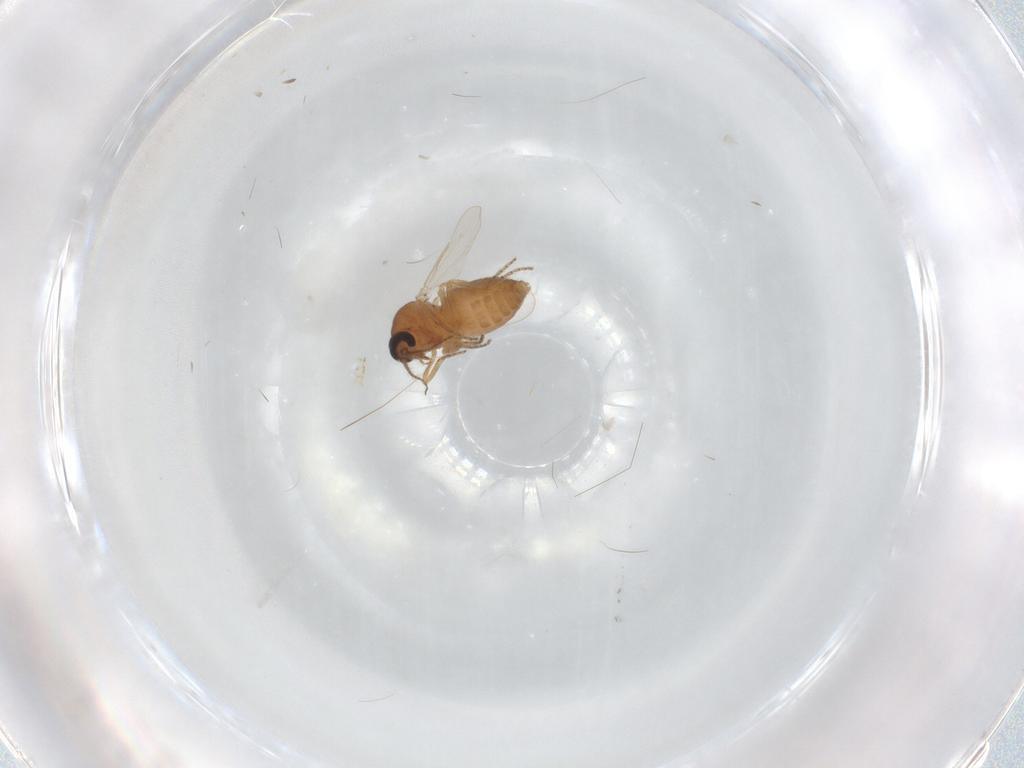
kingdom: Animalia
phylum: Arthropoda
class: Insecta
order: Diptera
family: Ceratopogonidae
